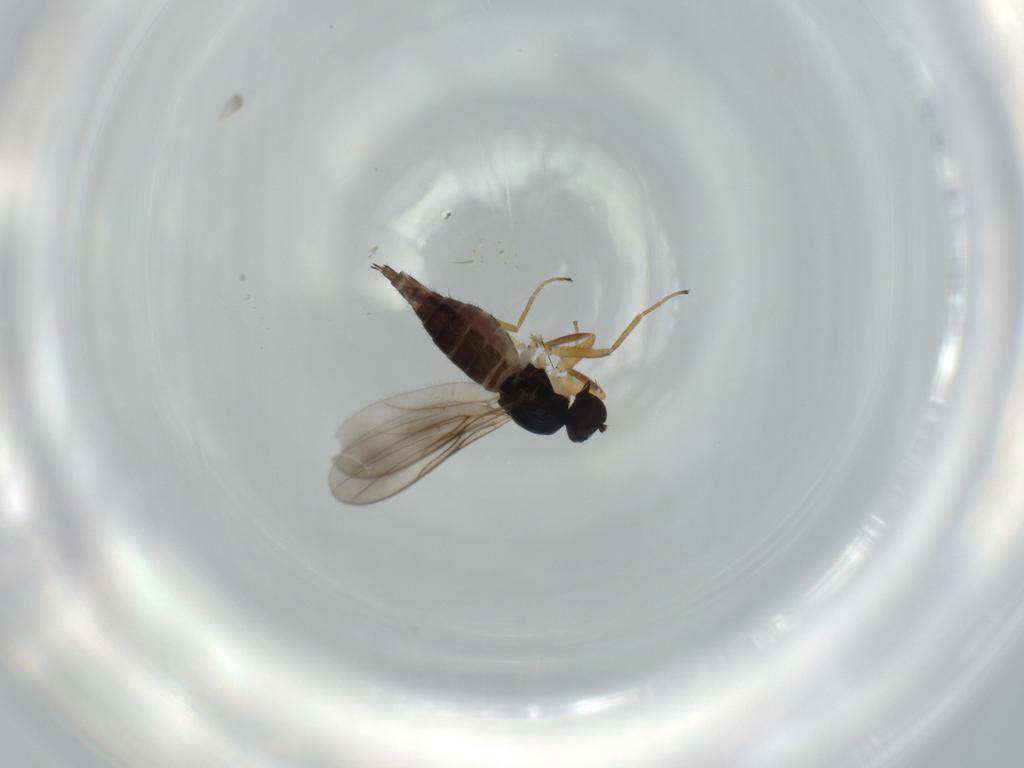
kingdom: Animalia
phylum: Arthropoda
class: Insecta
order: Diptera
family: Hybotidae
